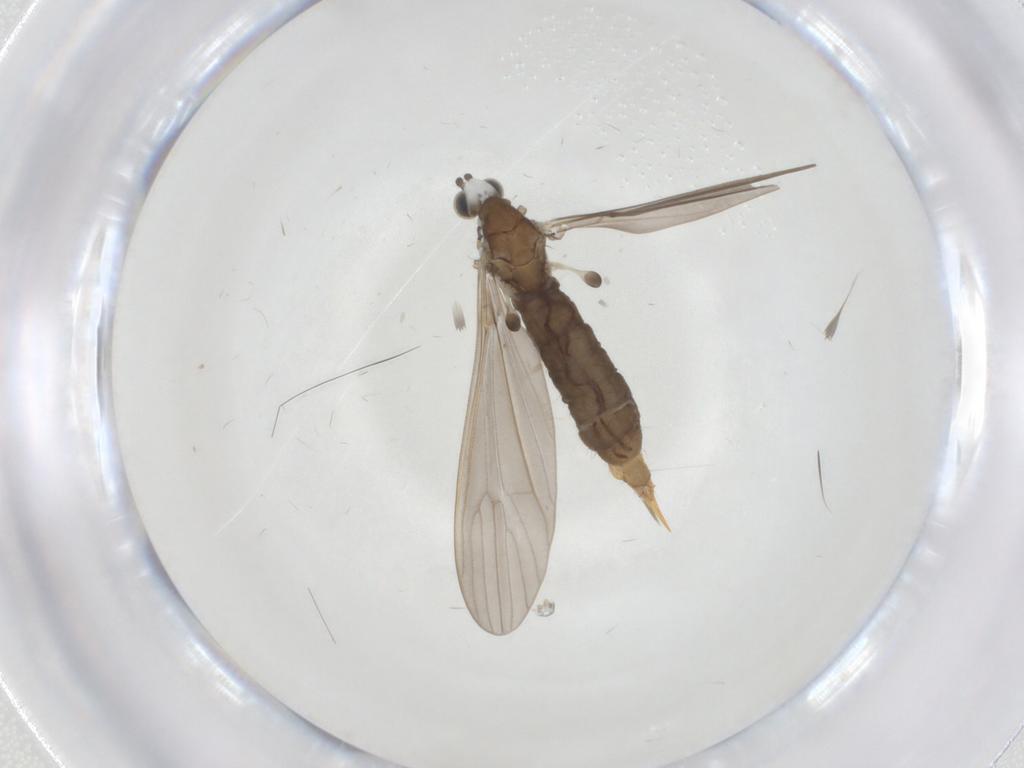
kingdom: Animalia
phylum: Arthropoda
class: Insecta
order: Diptera
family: Limoniidae
